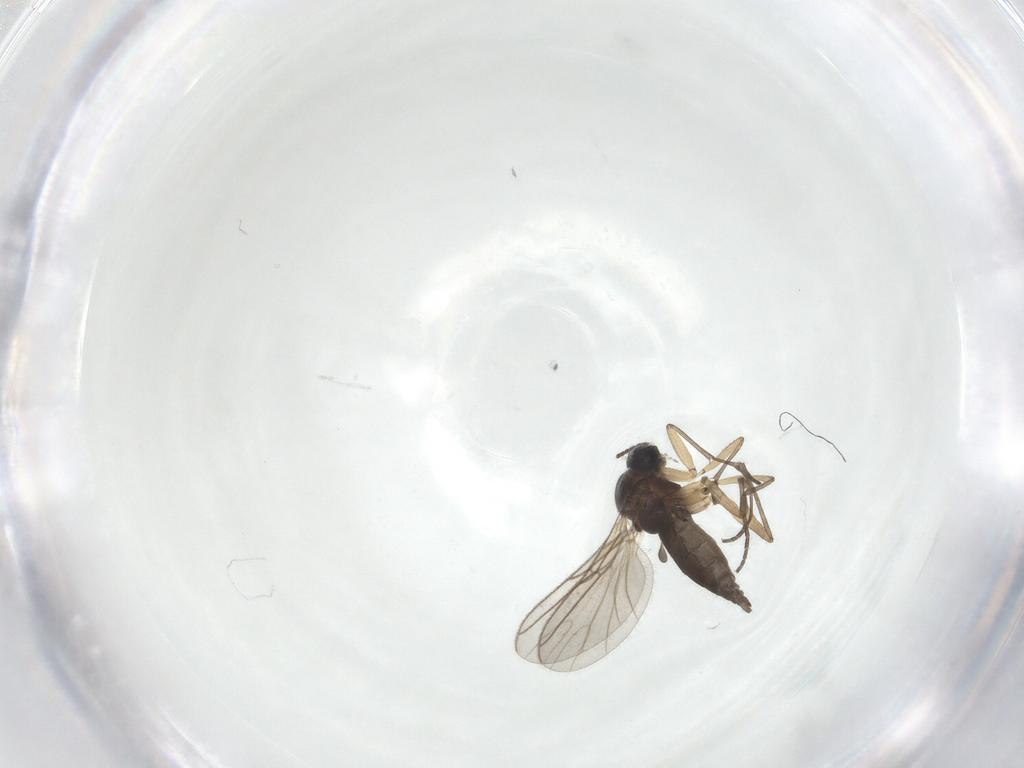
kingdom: Animalia
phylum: Arthropoda
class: Insecta
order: Diptera
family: Sciaridae
